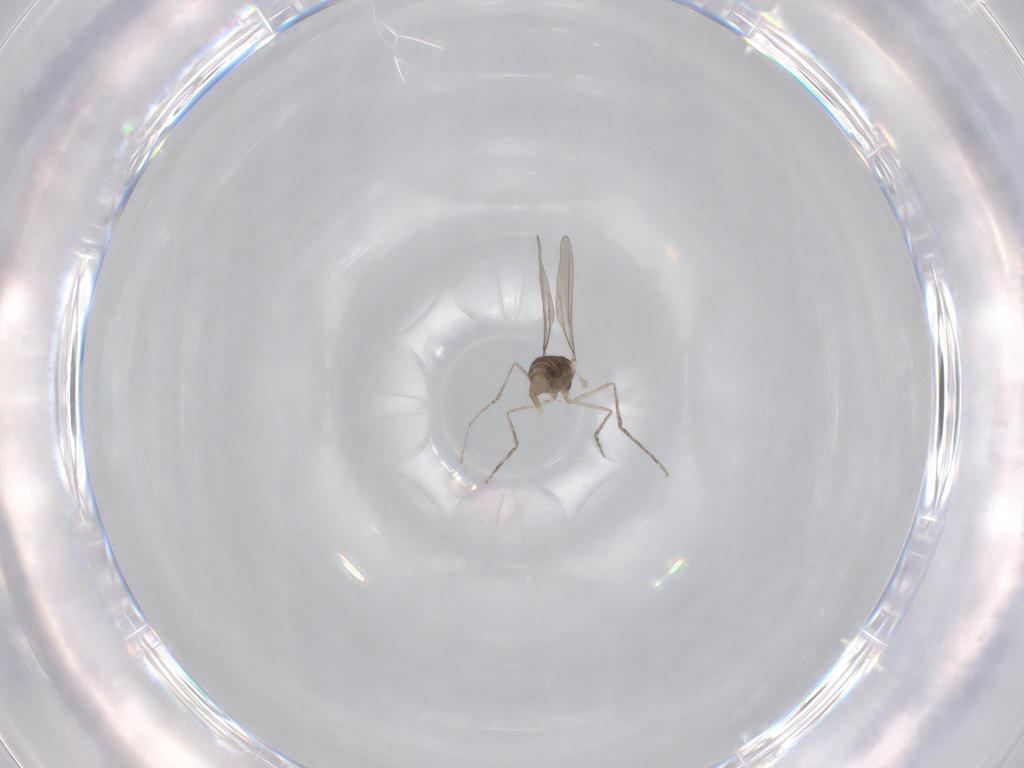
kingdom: Animalia
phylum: Arthropoda
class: Insecta
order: Diptera
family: Cecidomyiidae
